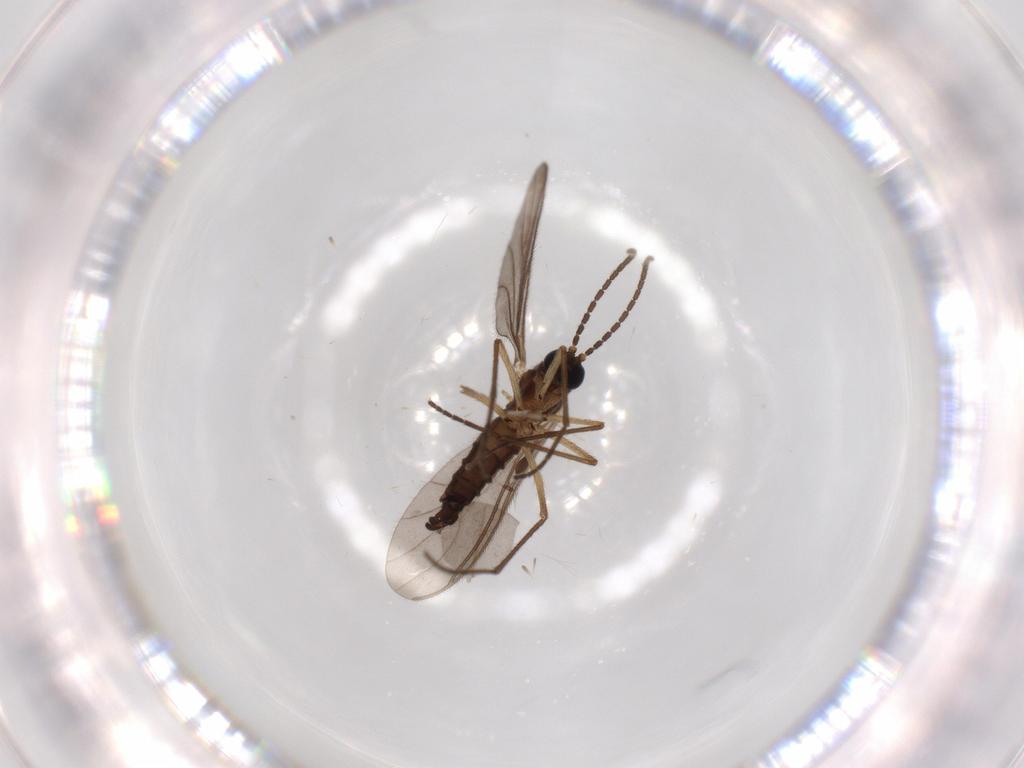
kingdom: Animalia
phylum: Arthropoda
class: Insecta
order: Diptera
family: Sciaridae
